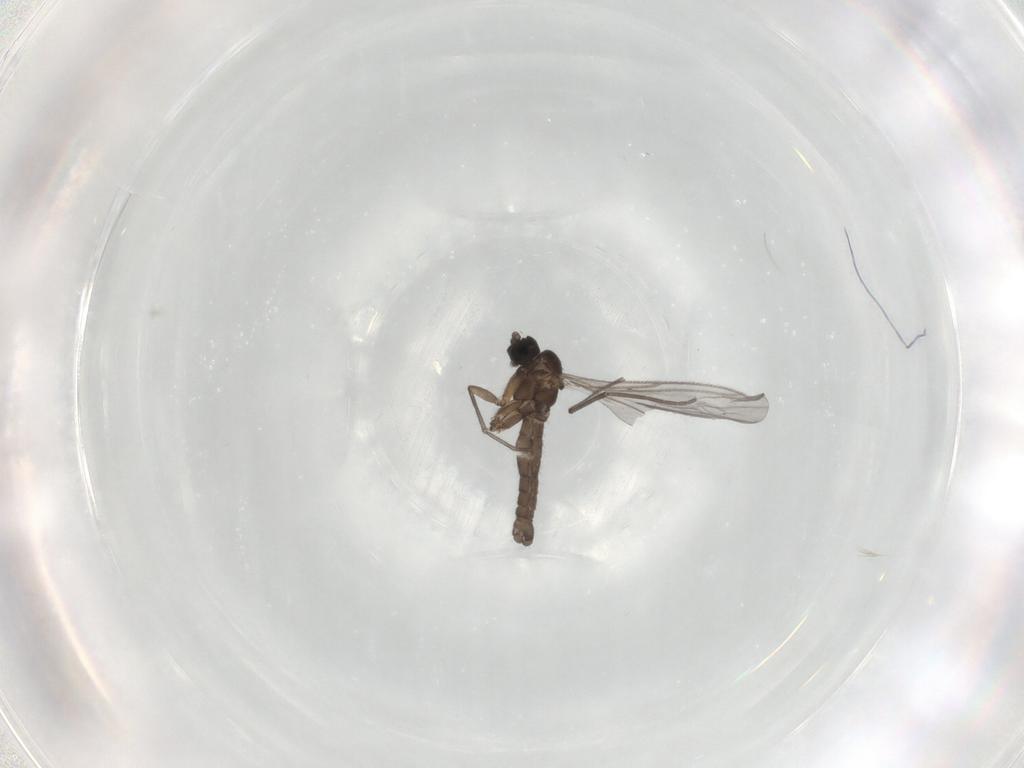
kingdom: Animalia
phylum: Arthropoda
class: Insecta
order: Diptera
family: Sciaridae
